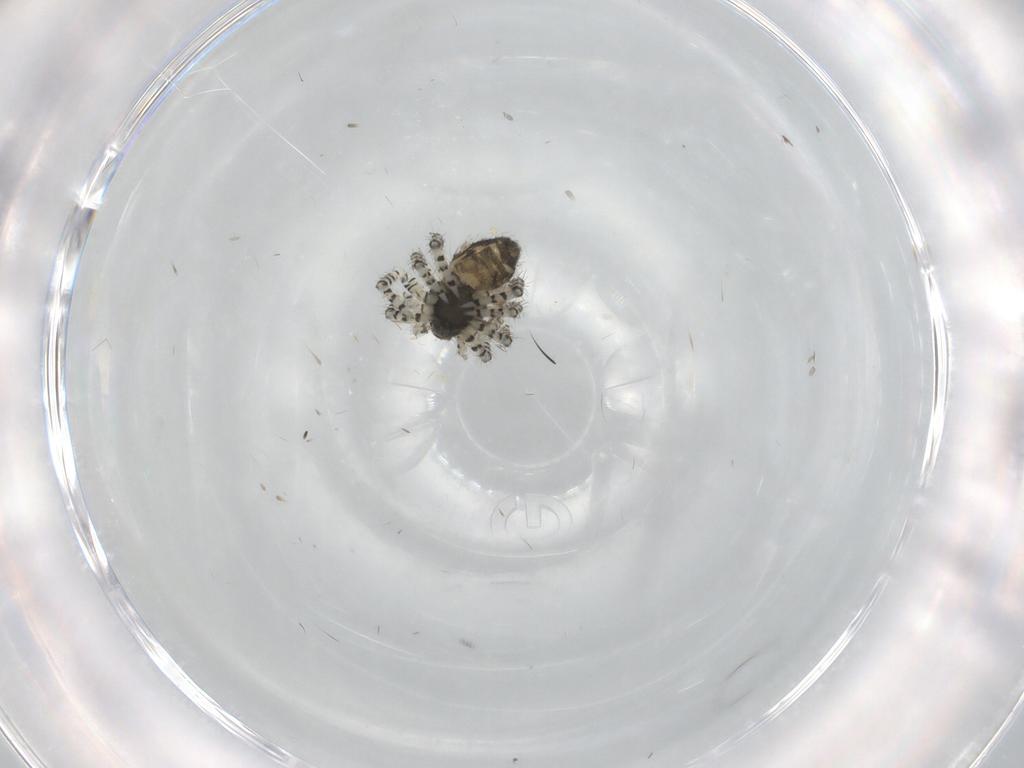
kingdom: Animalia
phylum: Arthropoda
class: Arachnida
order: Araneae
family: Theridiidae
